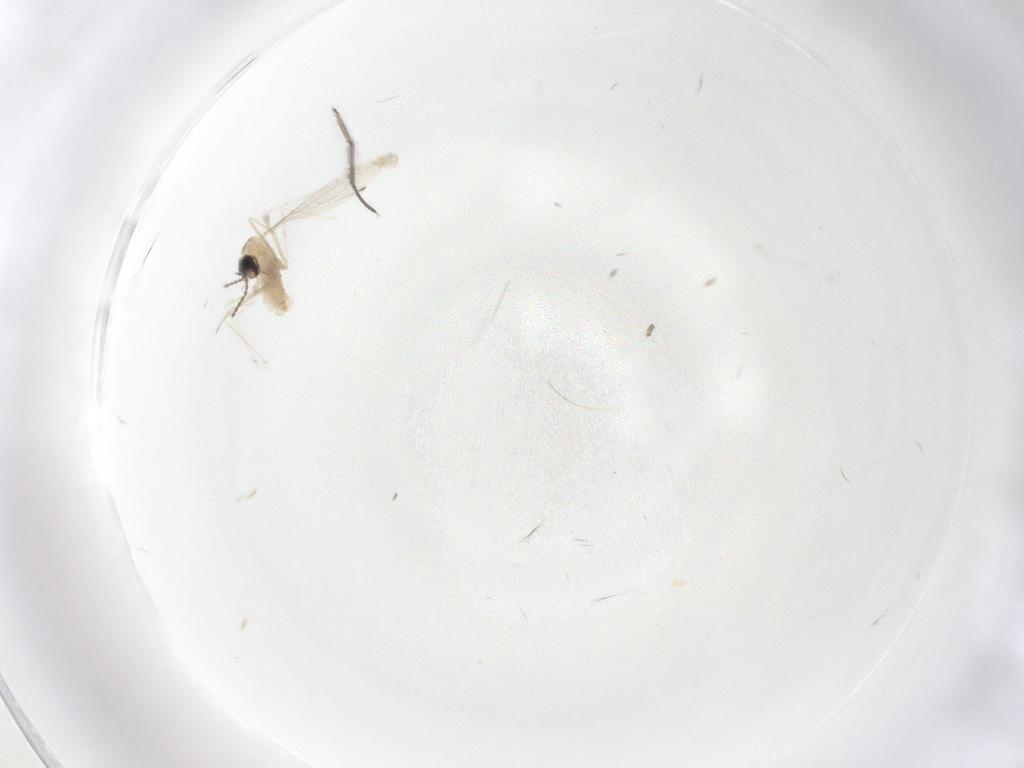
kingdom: Animalia
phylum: Arthropoda
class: Insecta
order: Diptera
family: Cecidomyiidae
